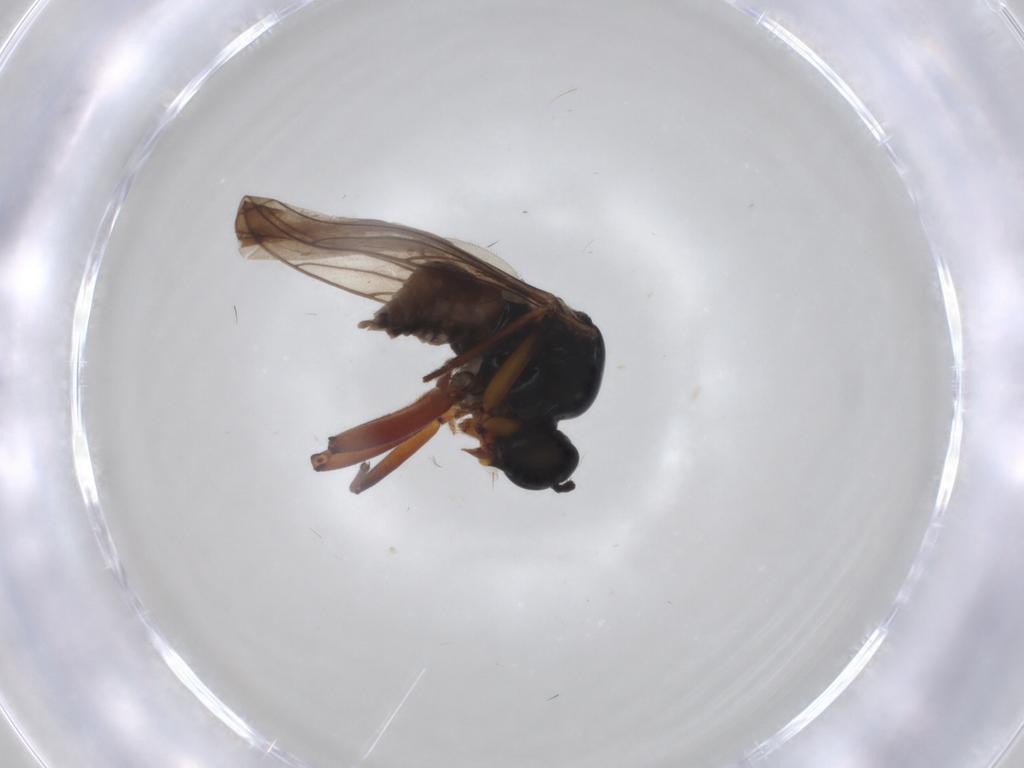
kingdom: Animalia
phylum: Arthropoda
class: Insecta
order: Diptera
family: Hybotidae
